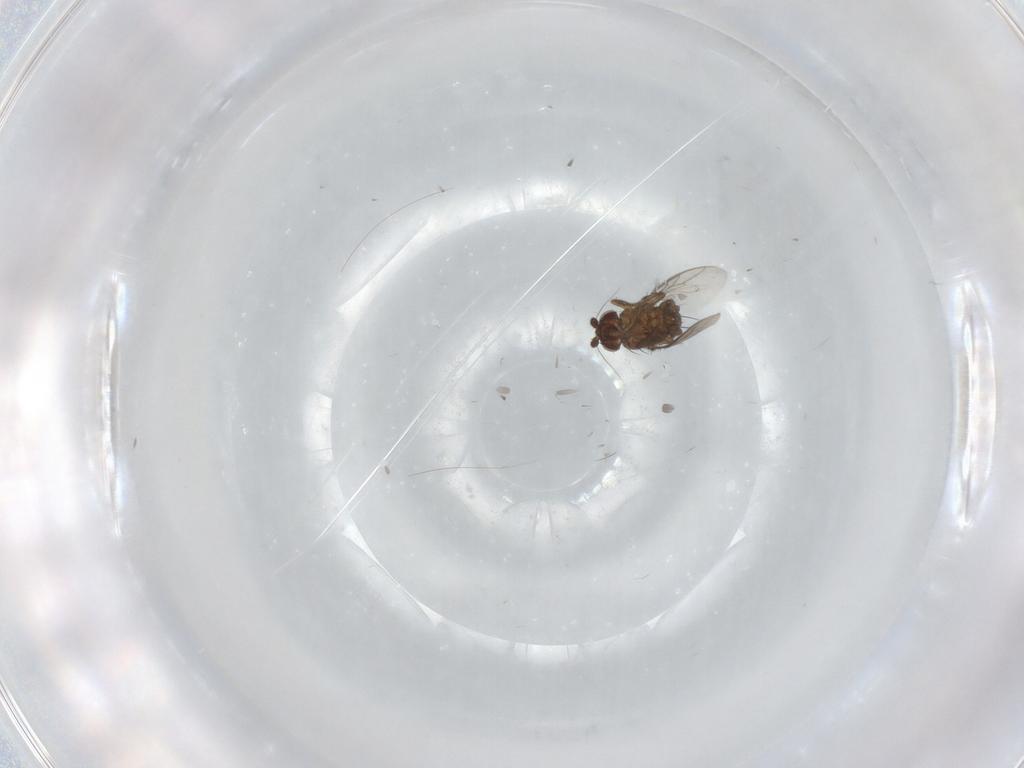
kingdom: Animalia
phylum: Arthropoda
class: Insecta
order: Diptera
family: Sphaeroceridae
